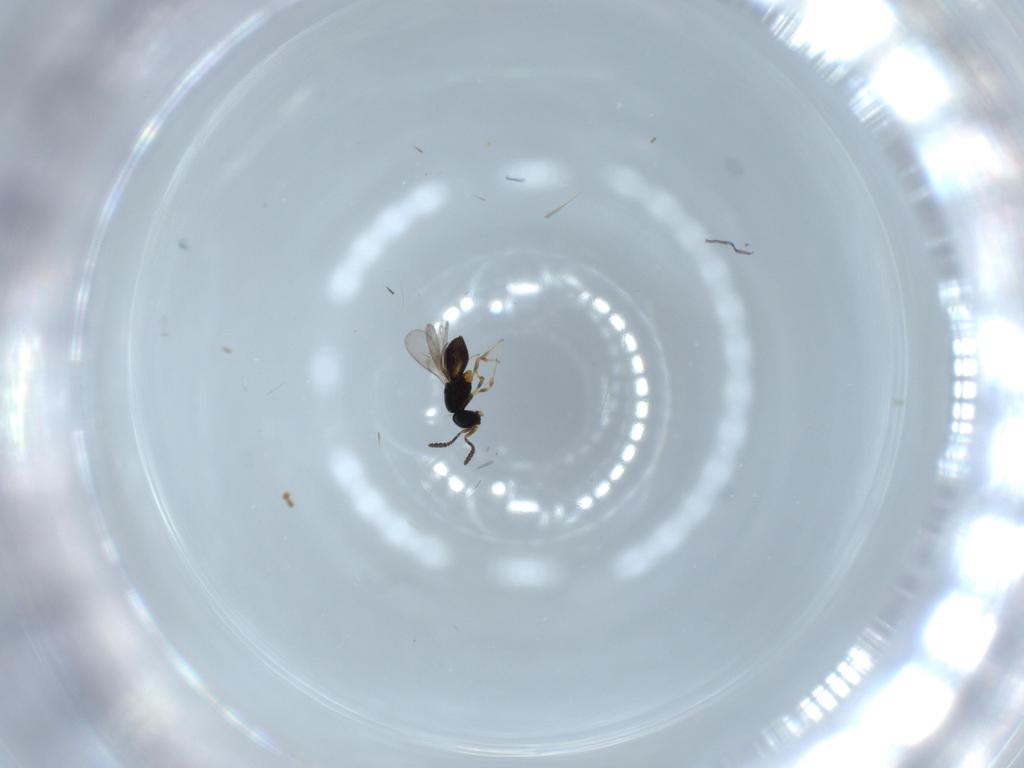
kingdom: Animalia
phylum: Arthropoda
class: Insecta
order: Hymenoptera
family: Scelionidae
